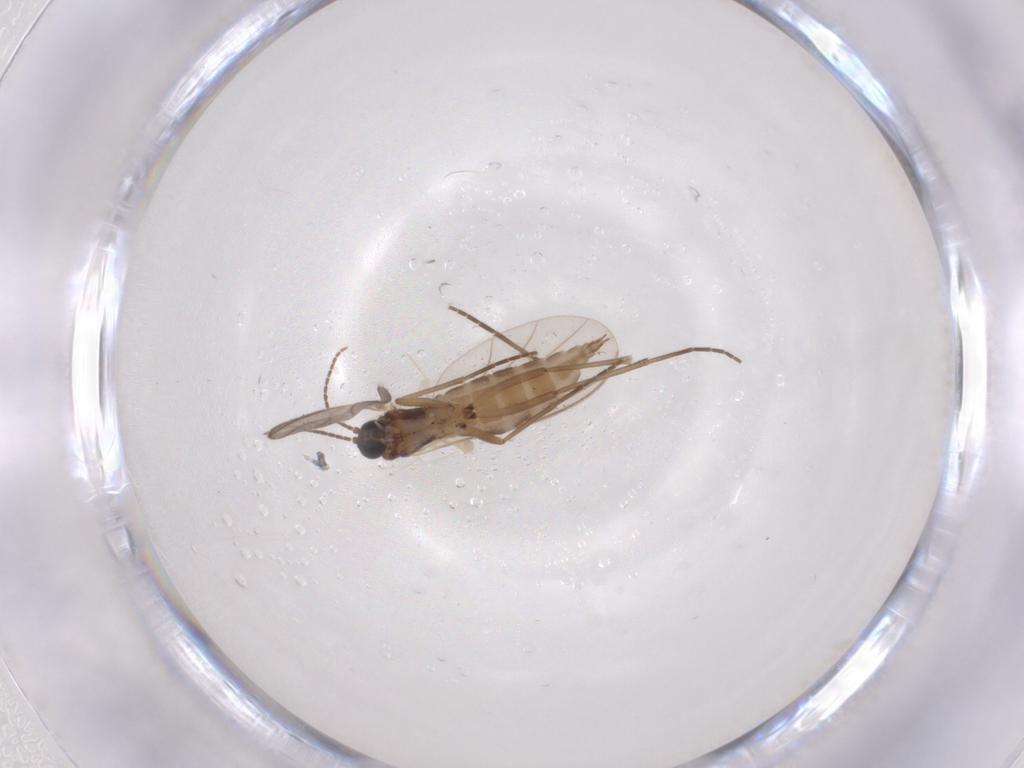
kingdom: Animalia
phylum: Arthropoda
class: Insecta
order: Diptera
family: Sciaridae
